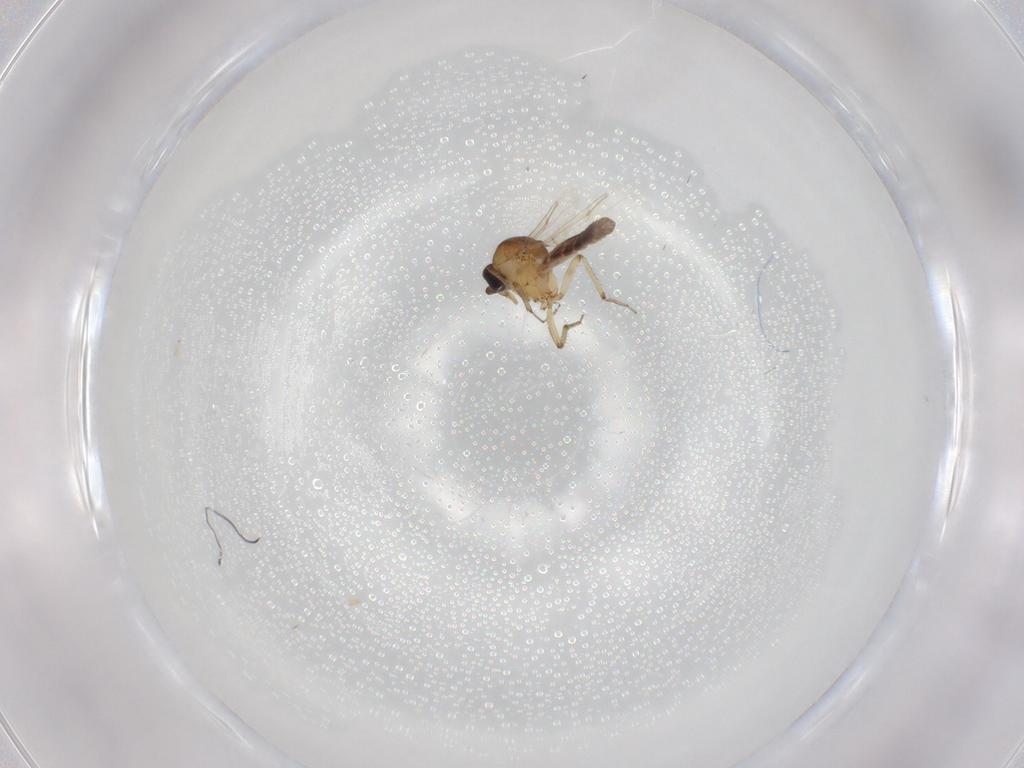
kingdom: Animalia
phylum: Arthropoda
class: Insecta
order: Diptera
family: Ceratopogonidae
